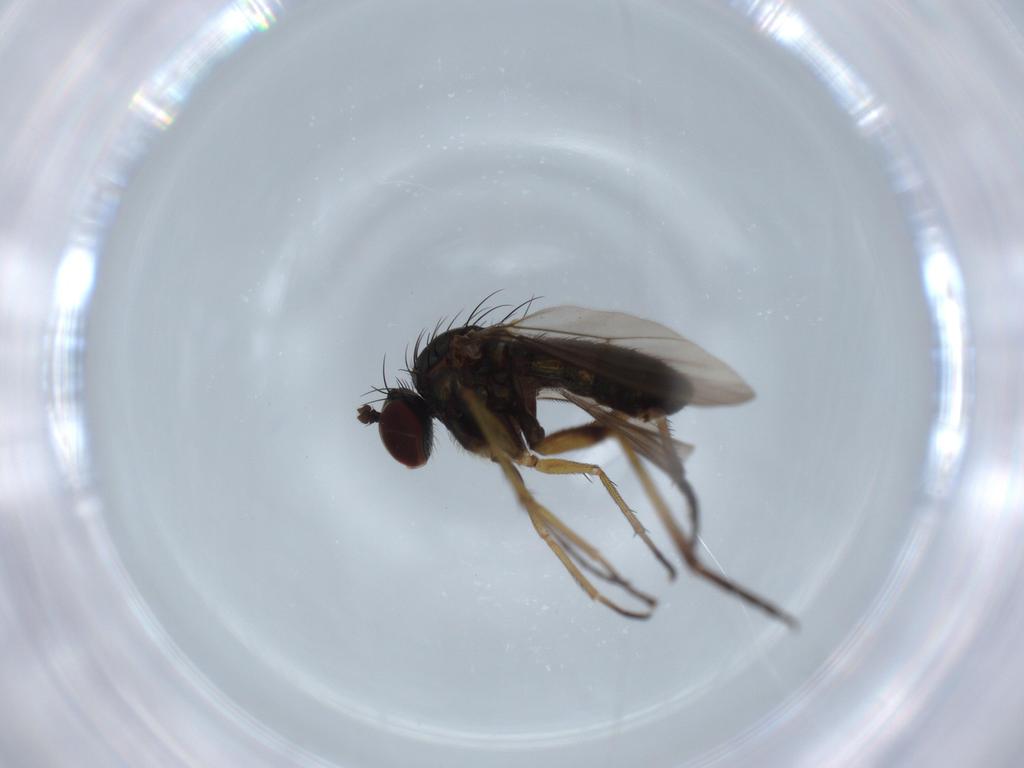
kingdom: Animalia
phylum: Arthropoda
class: Insecta
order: Diptera
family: Dolichopodidae
